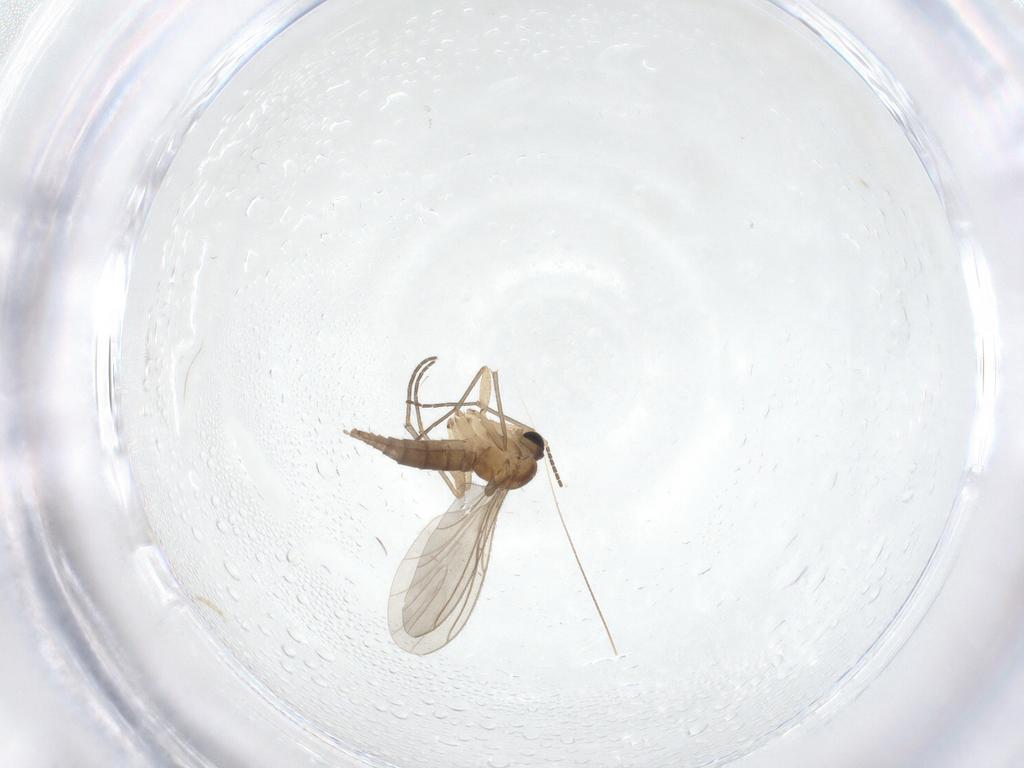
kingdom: Animalia
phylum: Arthropoda
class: Insecta
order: Diptera
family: Sciaridae
